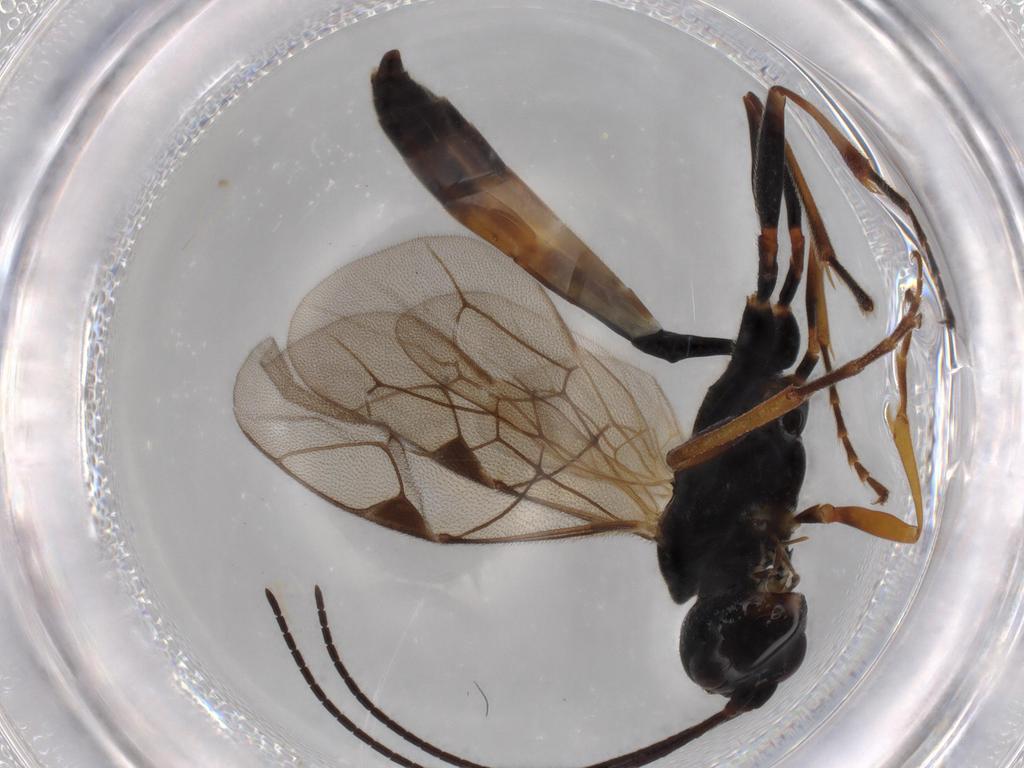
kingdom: Animalia
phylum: Arthropoda
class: Insecta
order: Hymenoptera
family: Ichneumonidae
